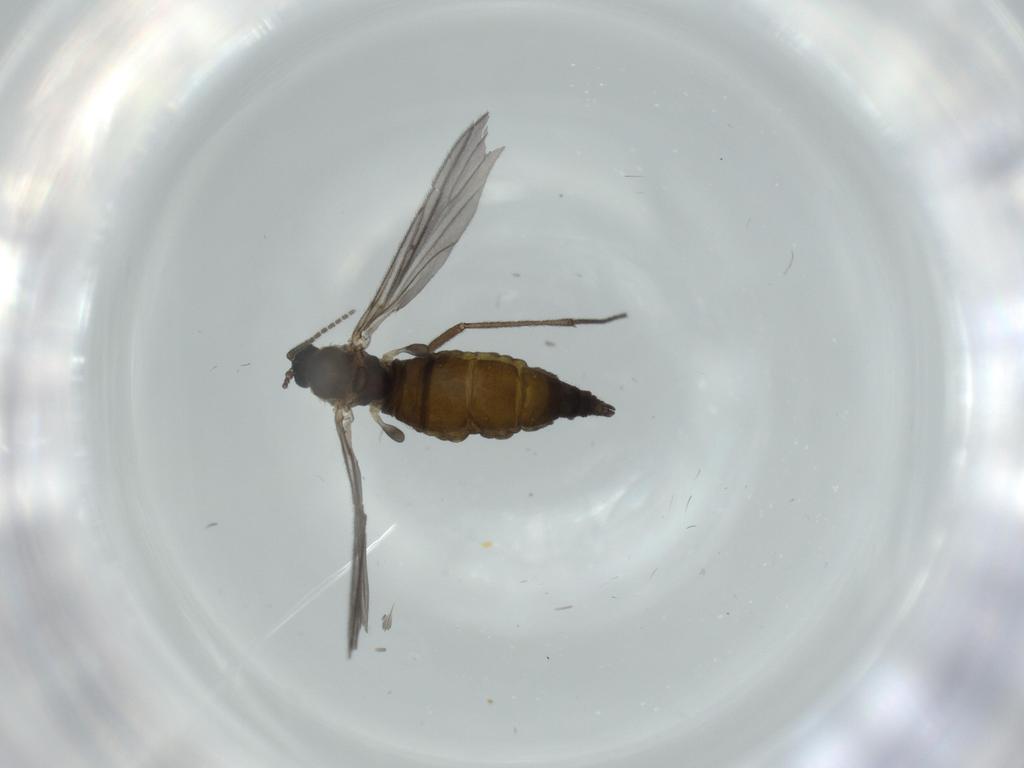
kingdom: Animalia
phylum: Arthropoda
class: Insecta
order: Diptera
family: Sciaridae
